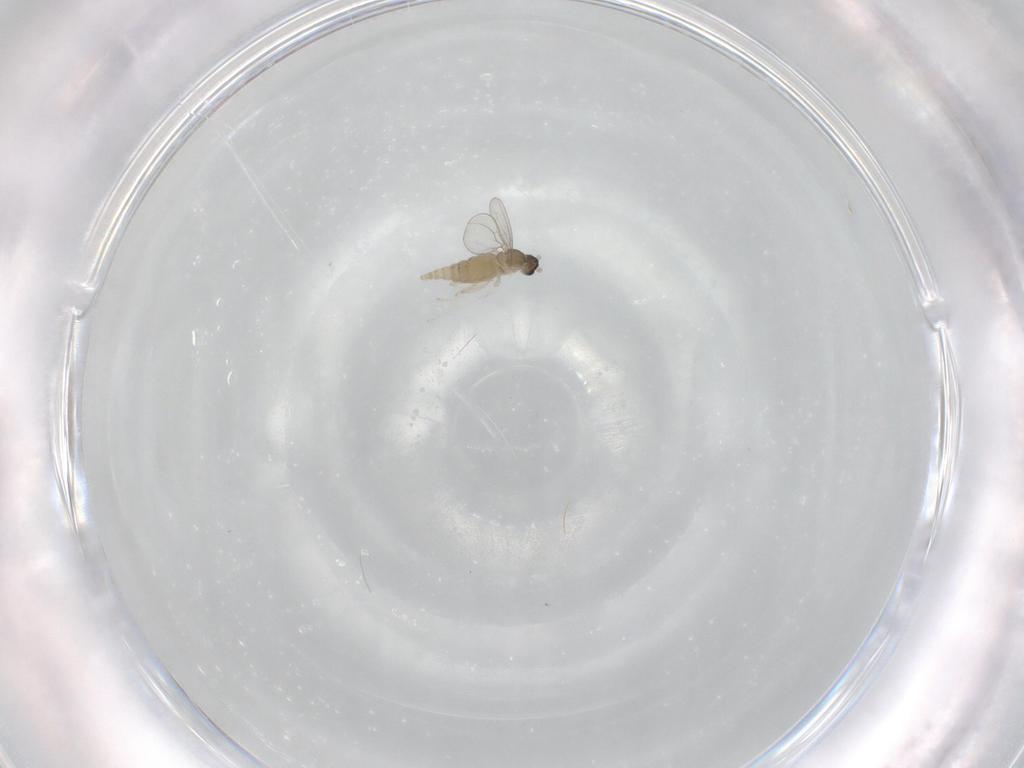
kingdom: Animalia
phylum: Arthropoda
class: Insecta
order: Diptera
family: Cecidomyiidae
